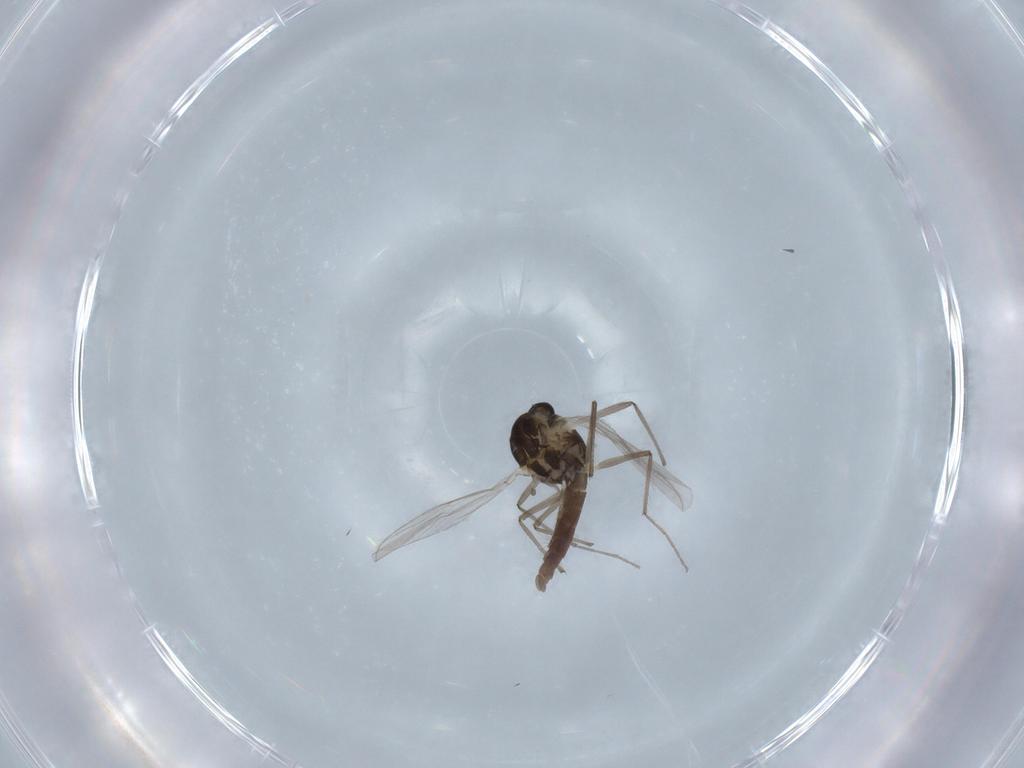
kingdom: Animalia
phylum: Arthropoda
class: Insecta
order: Diptera
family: Chironomidae
